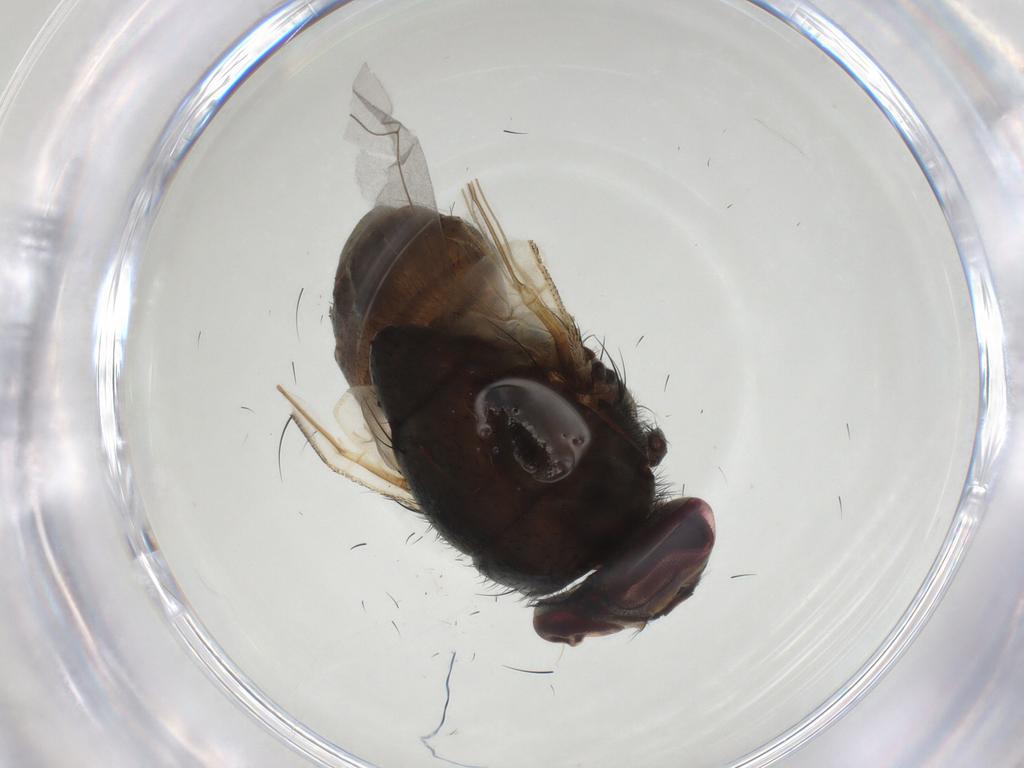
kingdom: Animalia
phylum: Arthropoda
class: Insecta
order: Diptera
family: Muscidae
